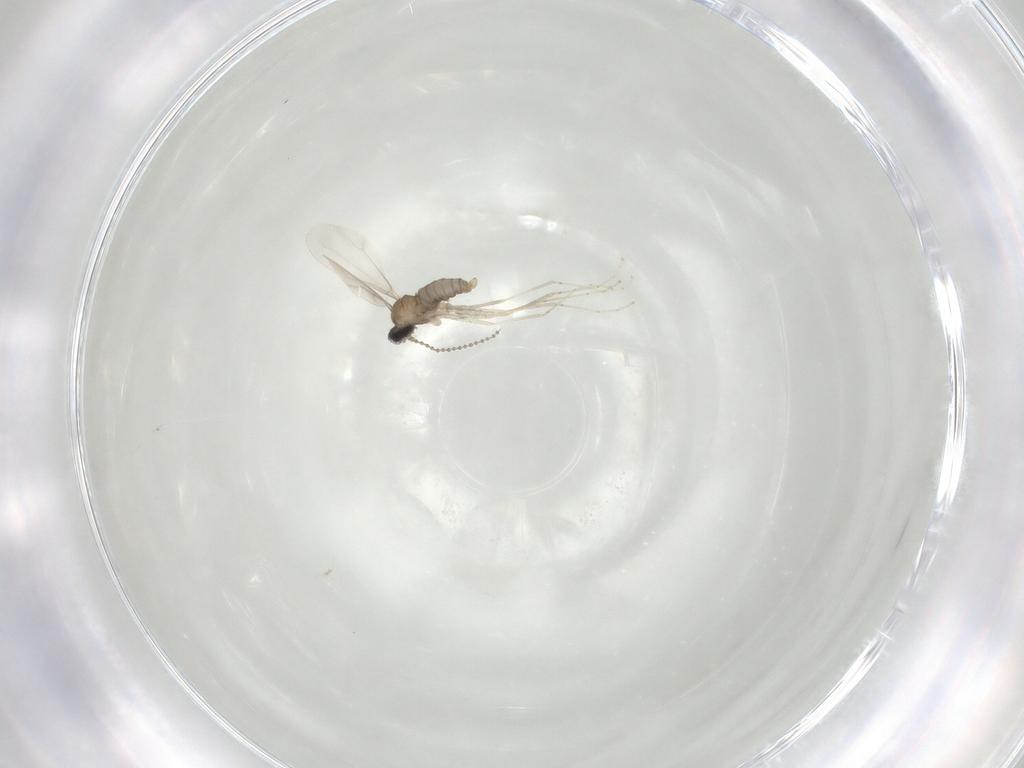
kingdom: Animalia
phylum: Arthropoda
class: Insecta
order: Diptera
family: Cecidomyiidae
